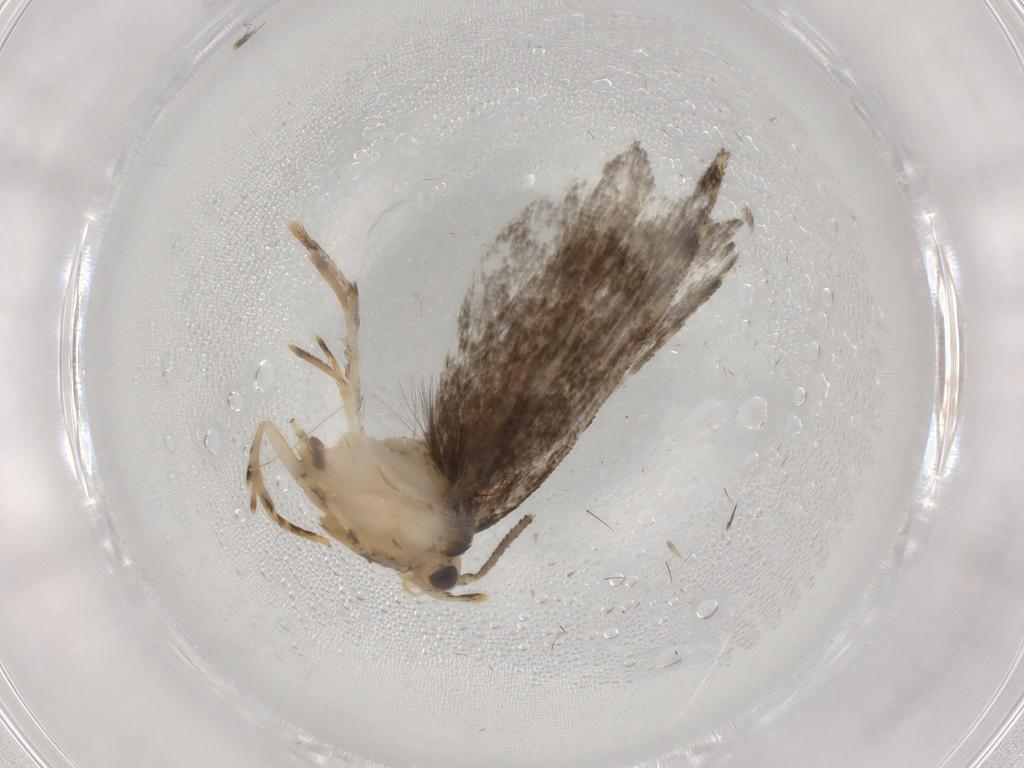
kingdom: Animalia
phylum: Arthropoda
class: Insecta
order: Lepidoptera
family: Tineidae
